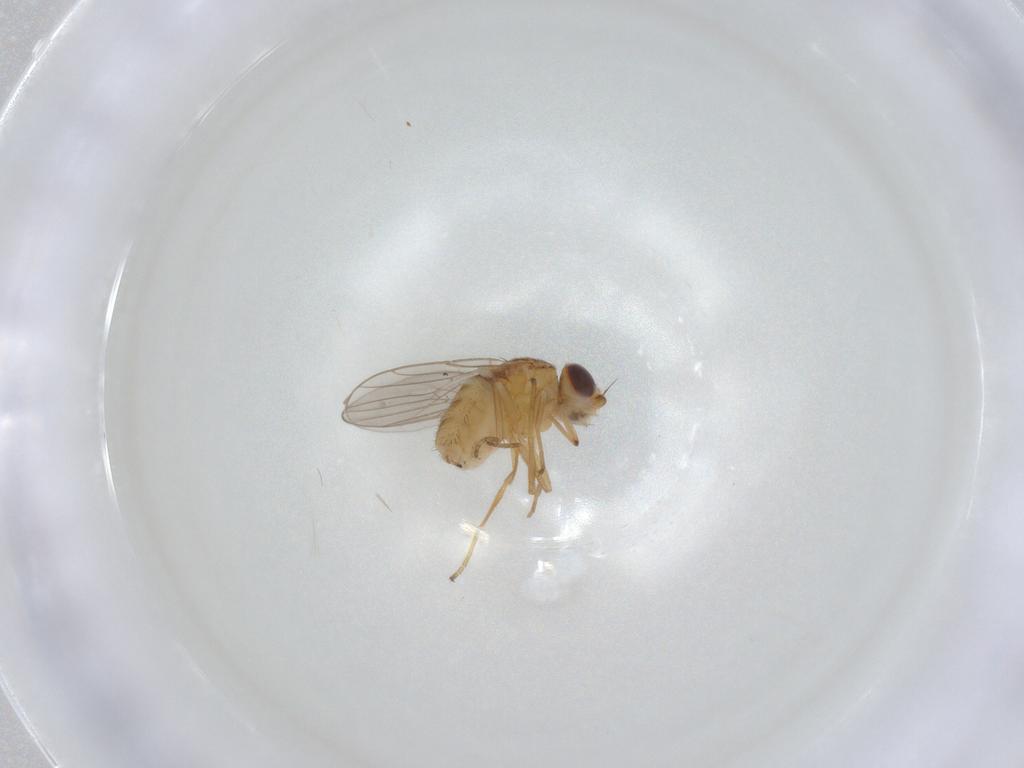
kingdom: Animalia
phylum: Arthropoda
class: Insecta
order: Diptera
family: Chloropidae
